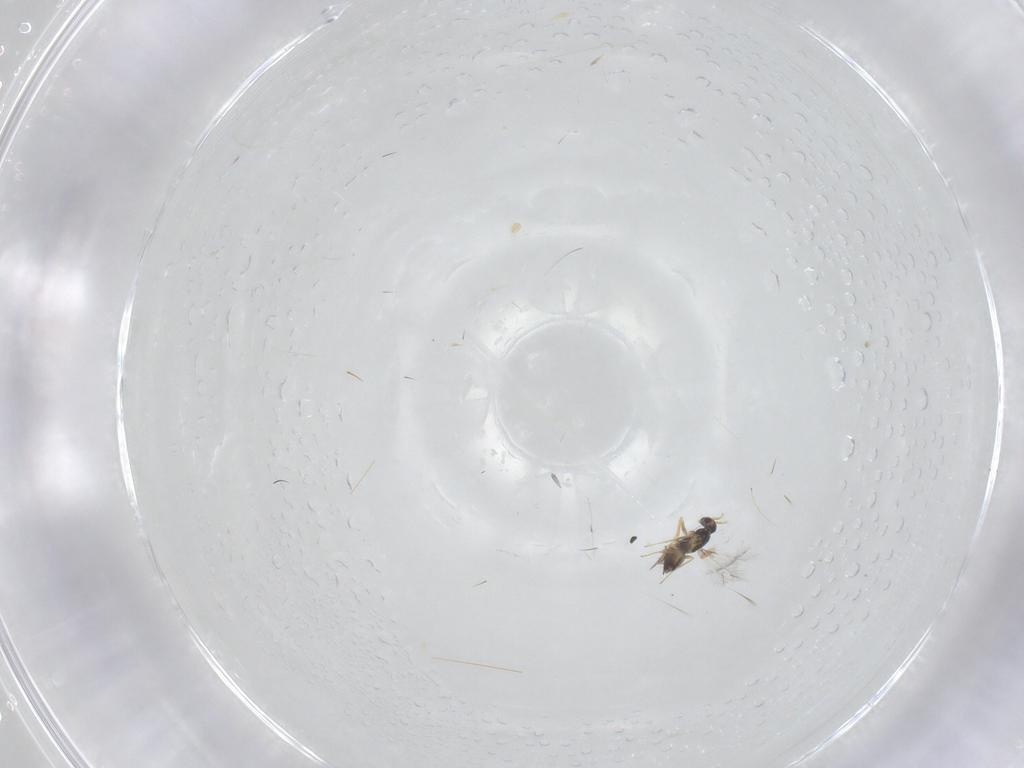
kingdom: Animalia
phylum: Arthropoda
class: Insecta
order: Hymenoptera
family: Mymaridae
